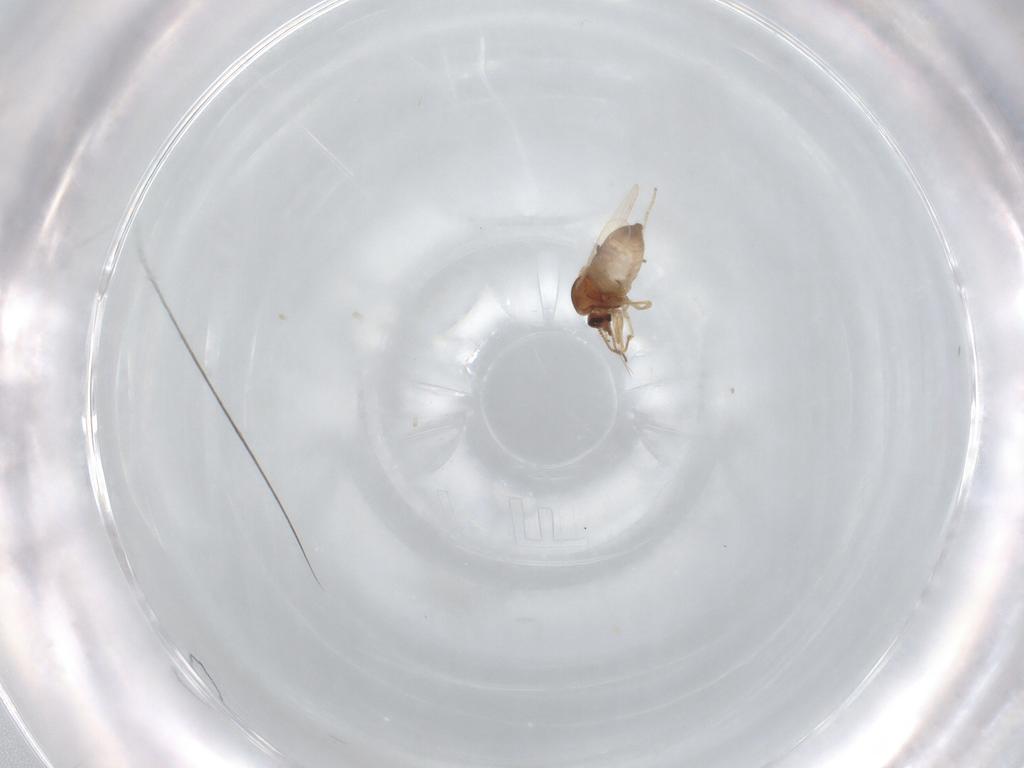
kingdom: Animalia
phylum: Arthropoda
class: Insecta
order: Diptera
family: Ceratopogonidae
